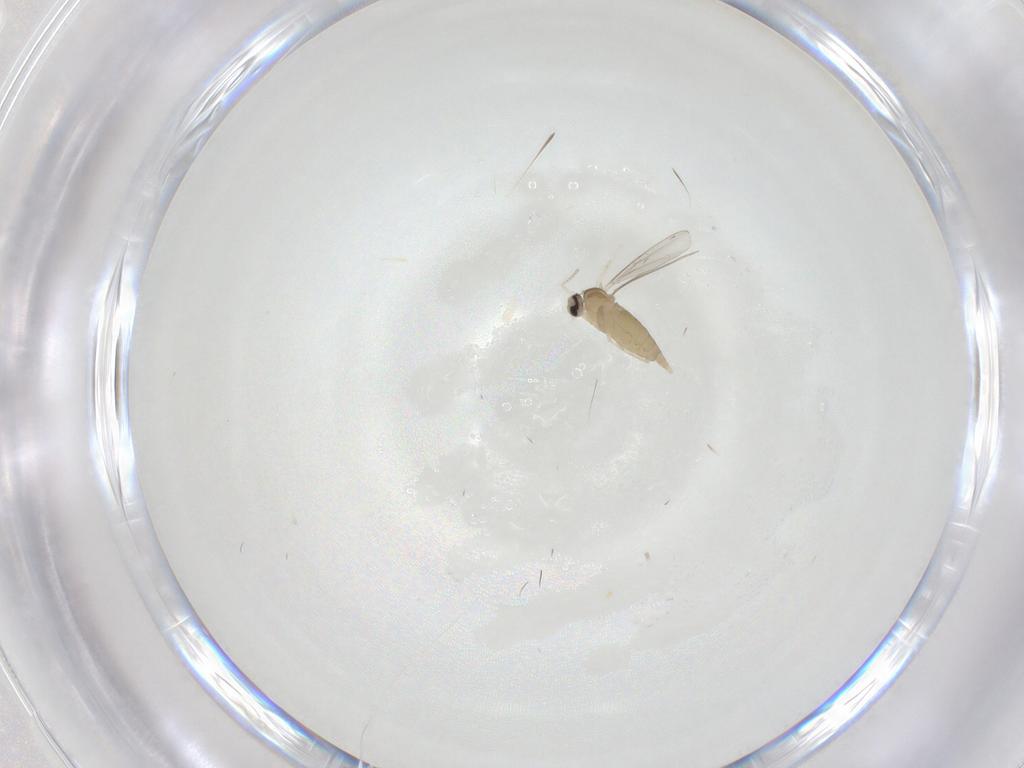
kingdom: Animalia
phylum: Arthropoda
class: Insecta
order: Diptera
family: Cecidomyiidae
